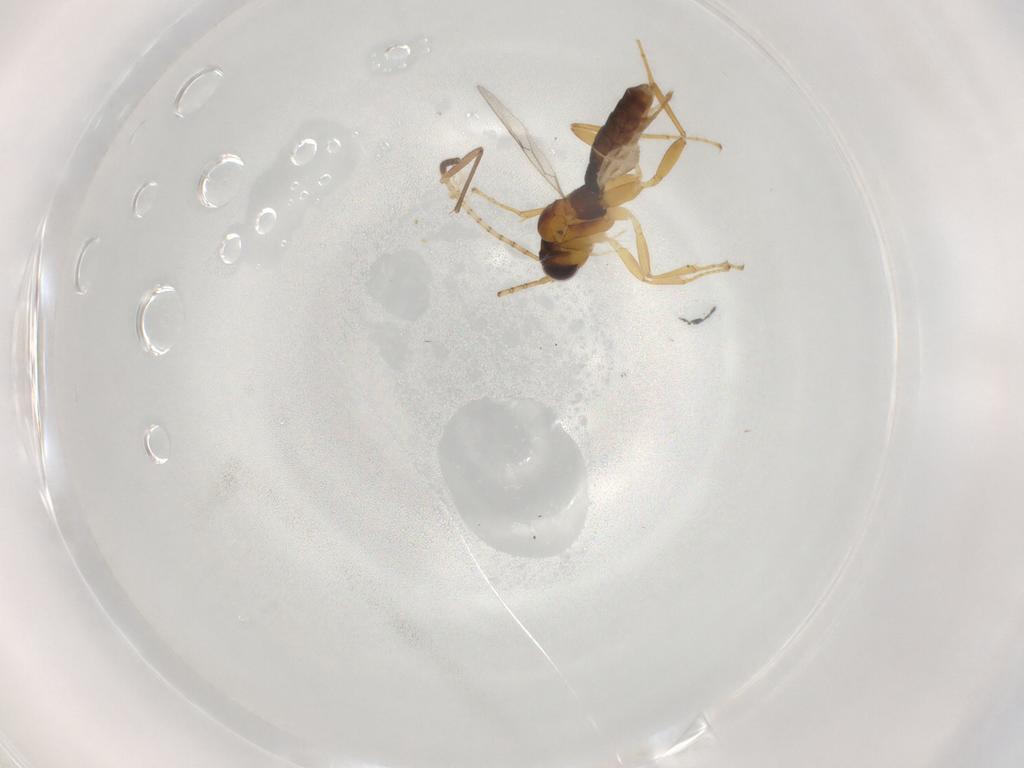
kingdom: Animalia
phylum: Arthropoda
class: Insecta
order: Hymenoptera
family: Ichneumonidae
